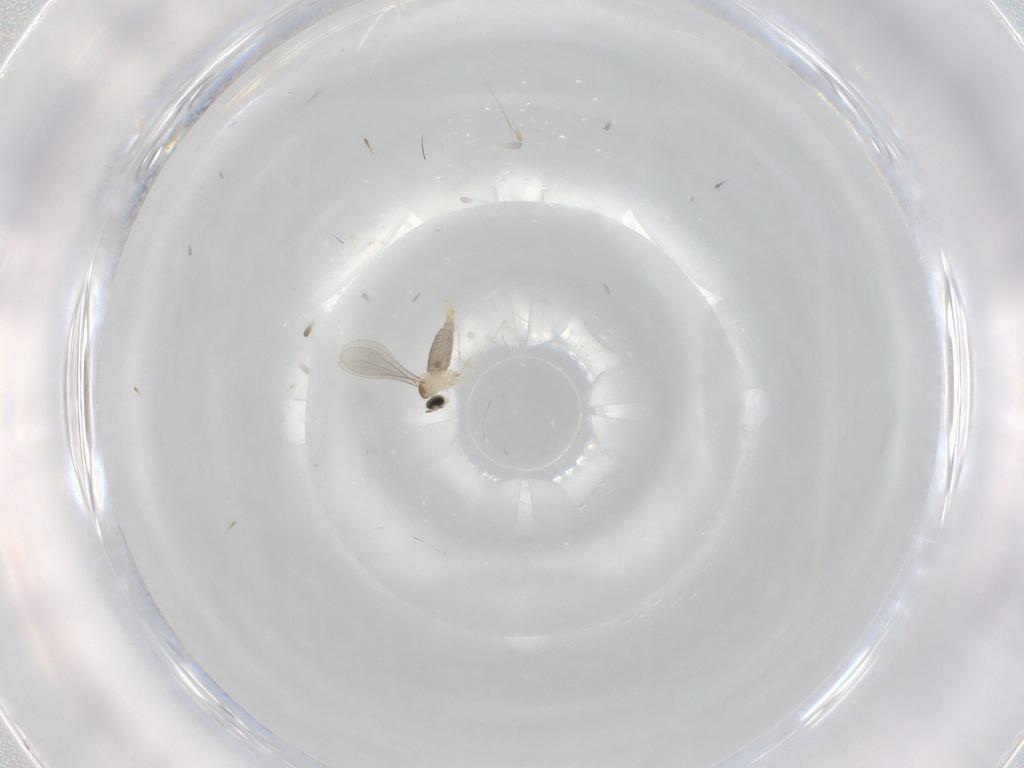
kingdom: Animalia
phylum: Arthropoda
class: Insecta
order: Diptera
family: Cecidomyiidae
